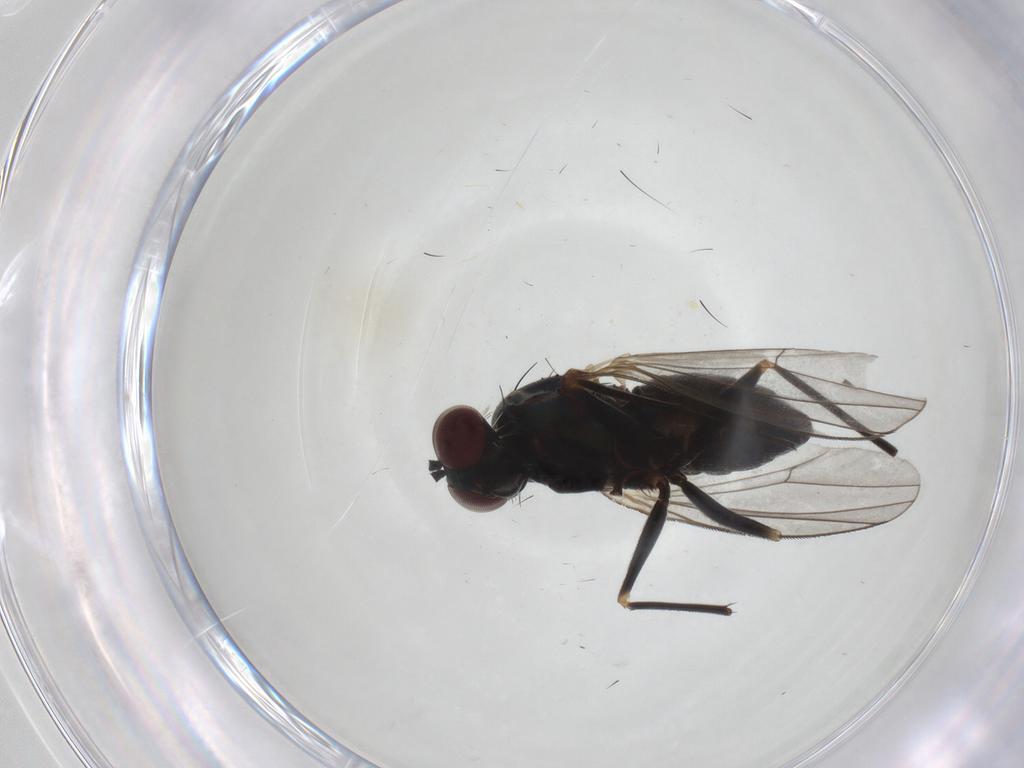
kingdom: Animalia
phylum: Arthropoda
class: Insecta
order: Diptera
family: Dolichopodidae
